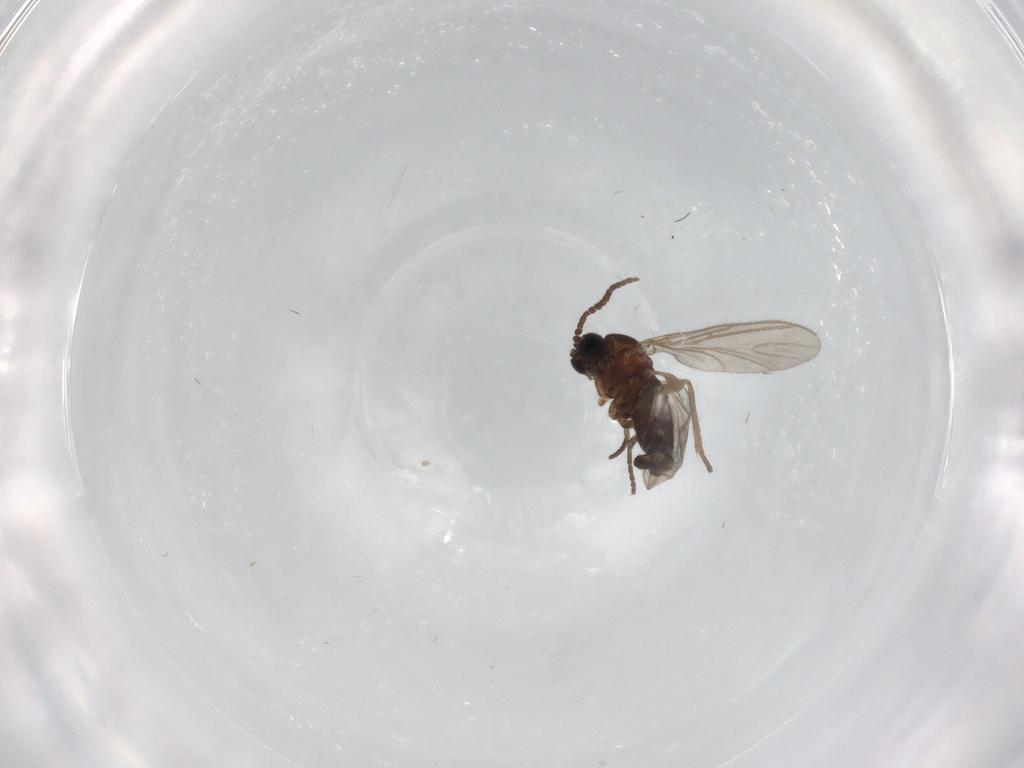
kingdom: Animalia
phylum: Arthropoda
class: Insecta
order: Diptera
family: Sciaridae
